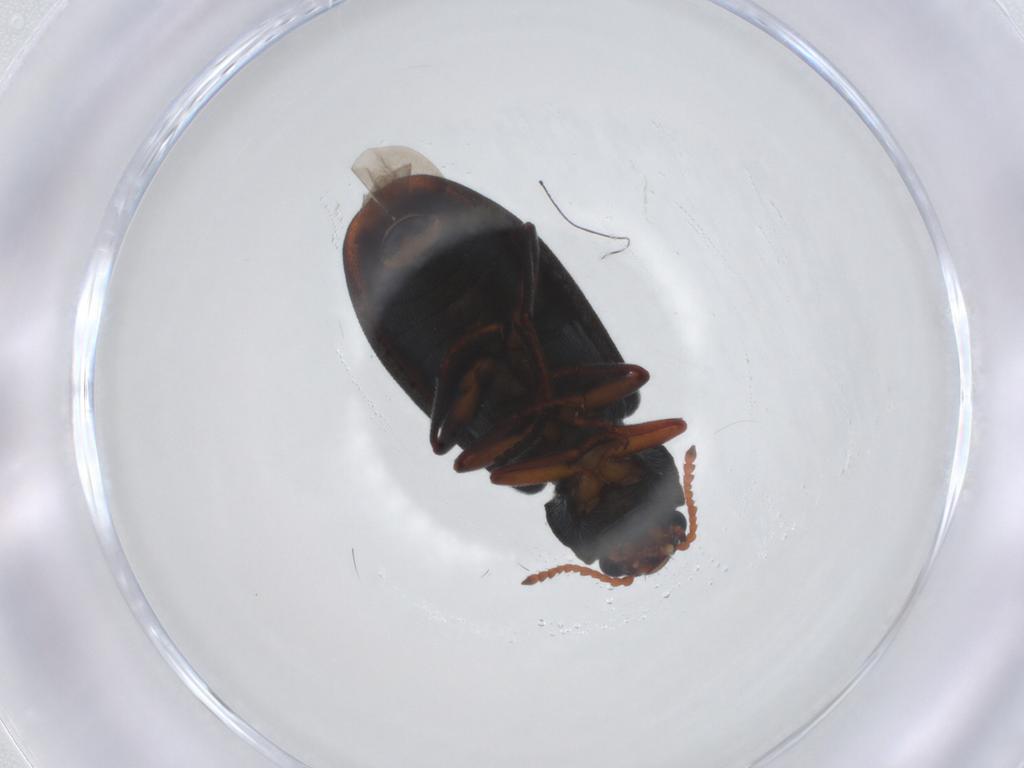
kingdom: Animalia
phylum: Arthropoda
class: Insecta
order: Coleoptera
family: Melyridae
